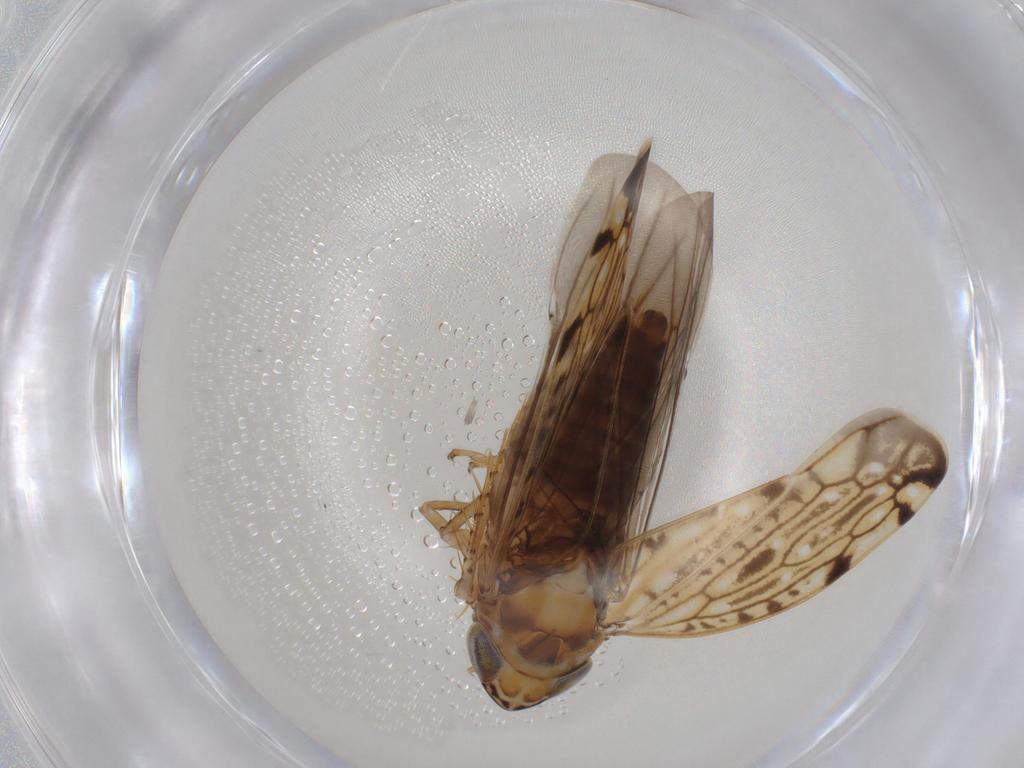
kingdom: Animalia
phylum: Arthropoda
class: Insecta
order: Hemiptera
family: Cicadellidae
